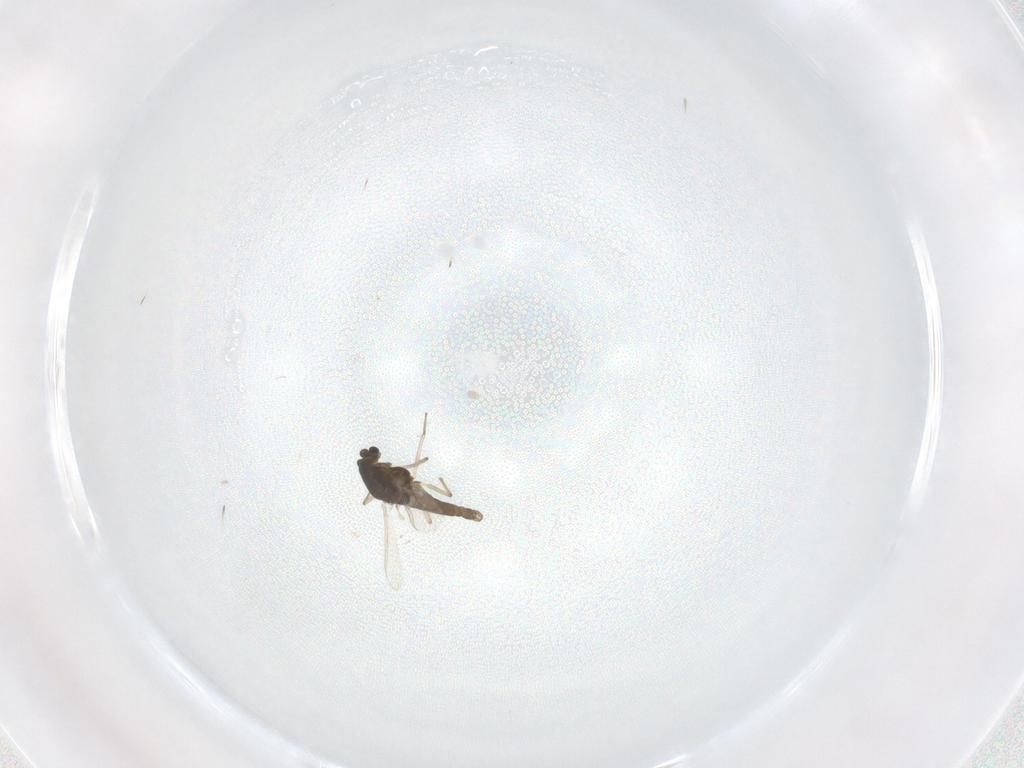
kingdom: Animalia
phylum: Arthropoda
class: Insecta
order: Diptera
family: Chironomidae
